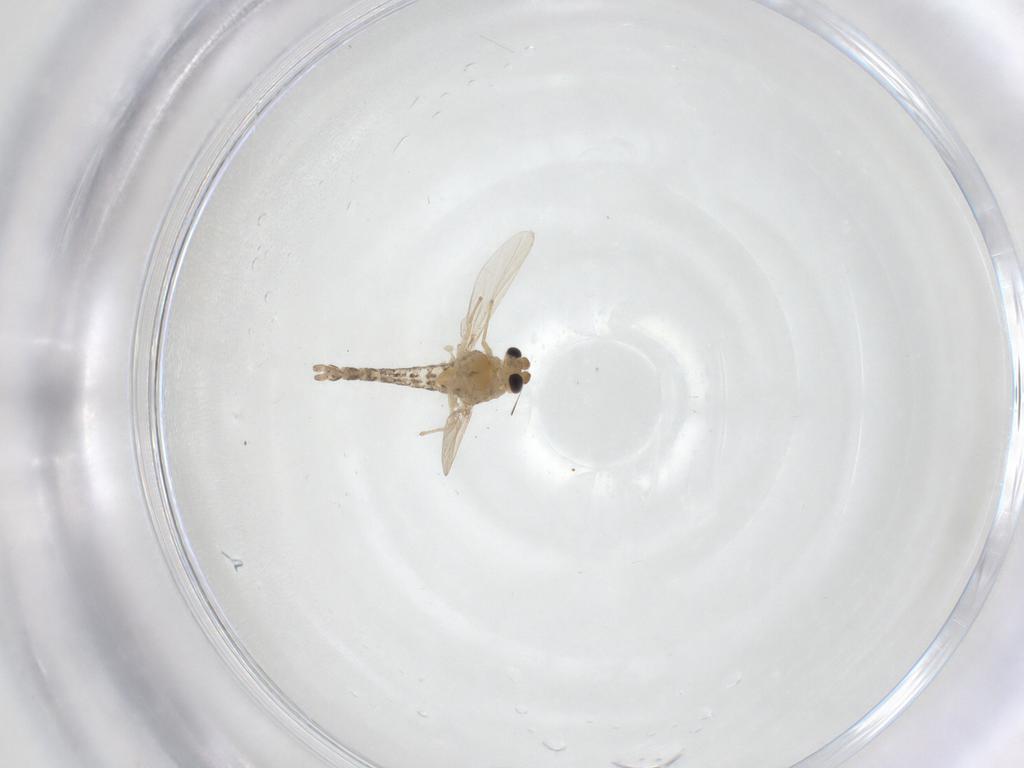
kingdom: Animalia
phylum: Arthropoda
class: Insecta
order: Diptera
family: Chironomidae
